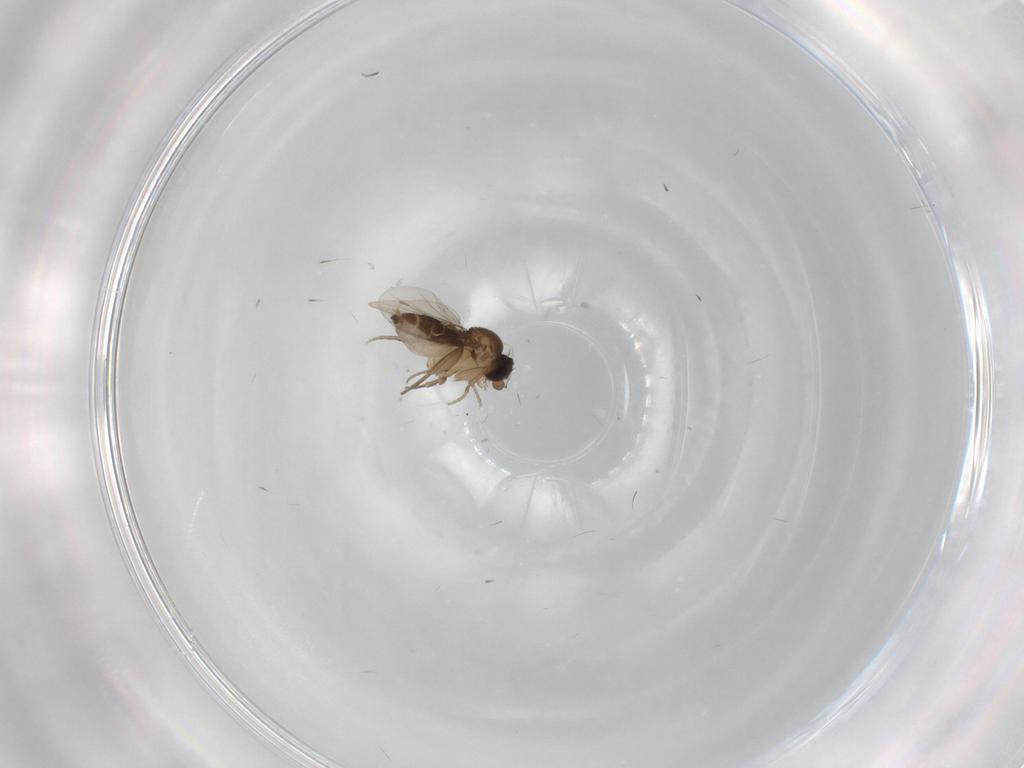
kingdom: Animalia
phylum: Arthropoda
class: Insecta
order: Diptera
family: Phoridae
